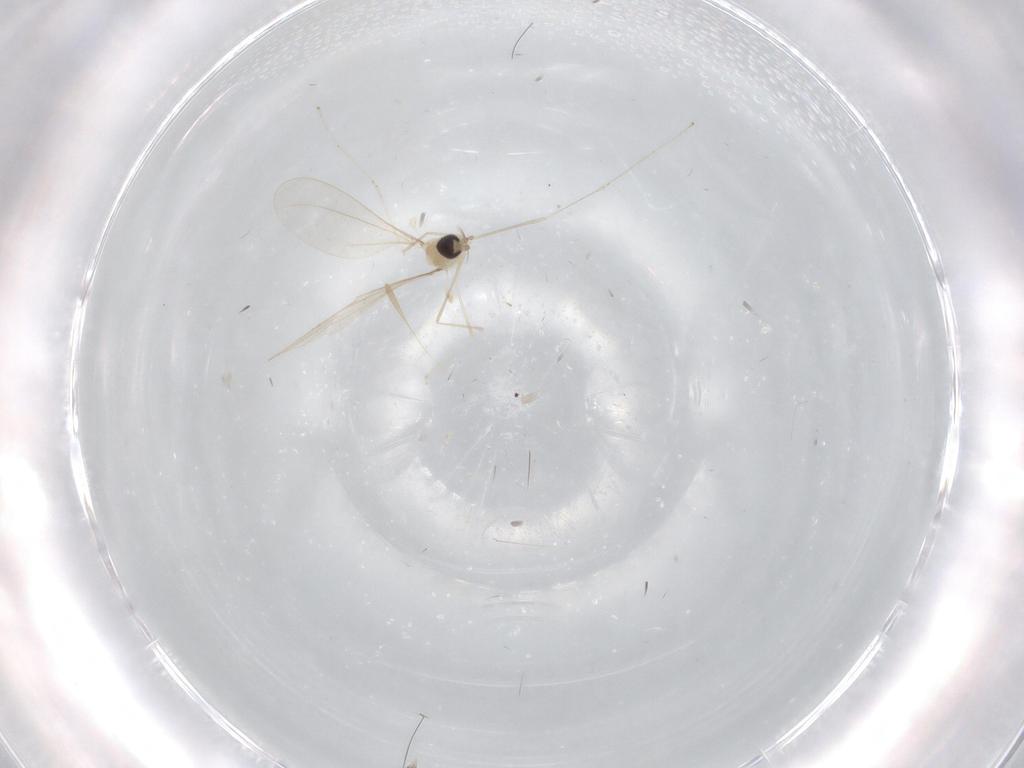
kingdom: Animalia
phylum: Arthropoda
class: Insecta
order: Diptera
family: Cecidomyiidae
